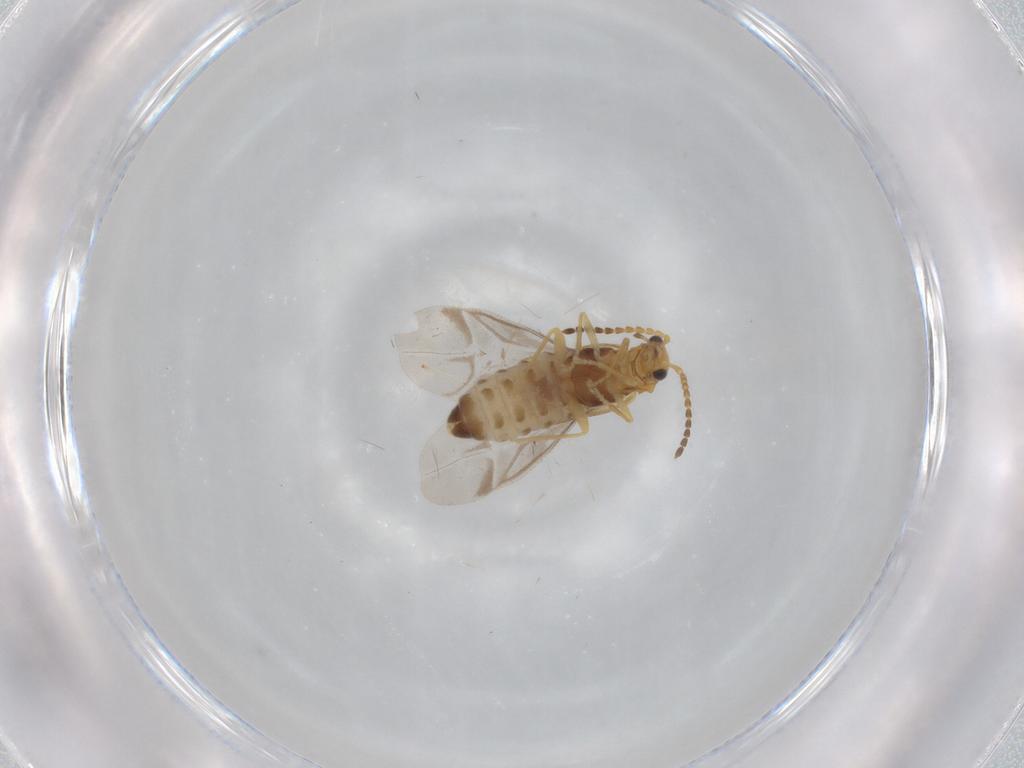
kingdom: Animalia
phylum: Arthropoda
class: Insecta
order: Coleoptera
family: Cantharidae
